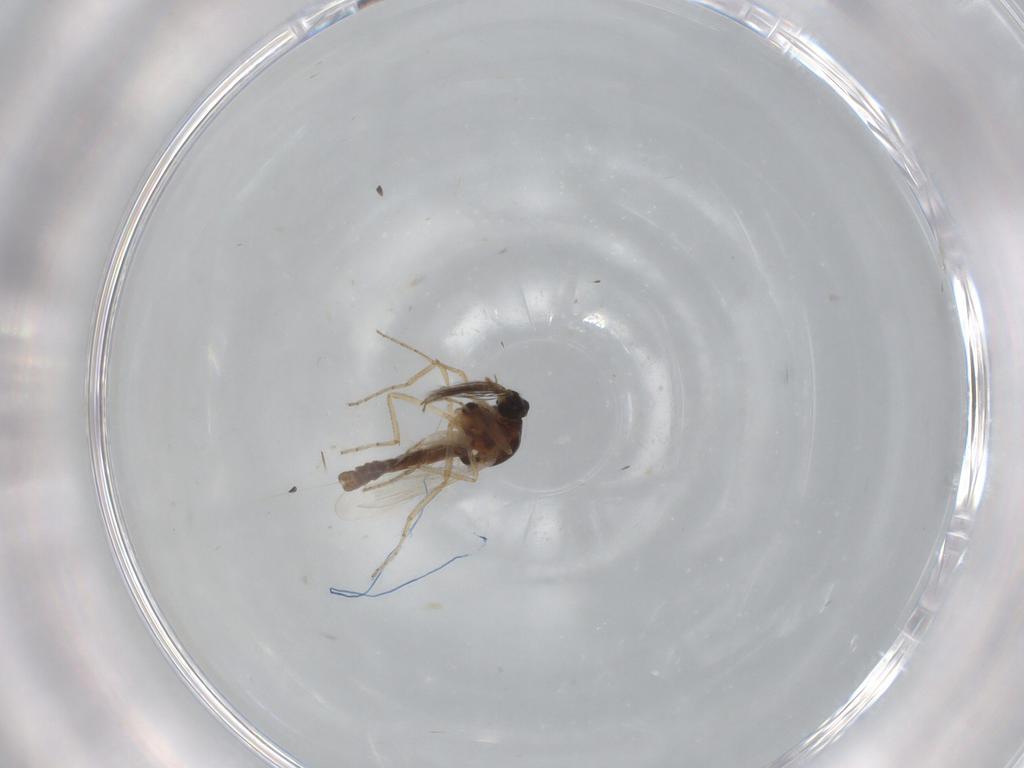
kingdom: Animalia
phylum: Arthropoda
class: Insecta
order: Diptera
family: Ceratopogonidae
